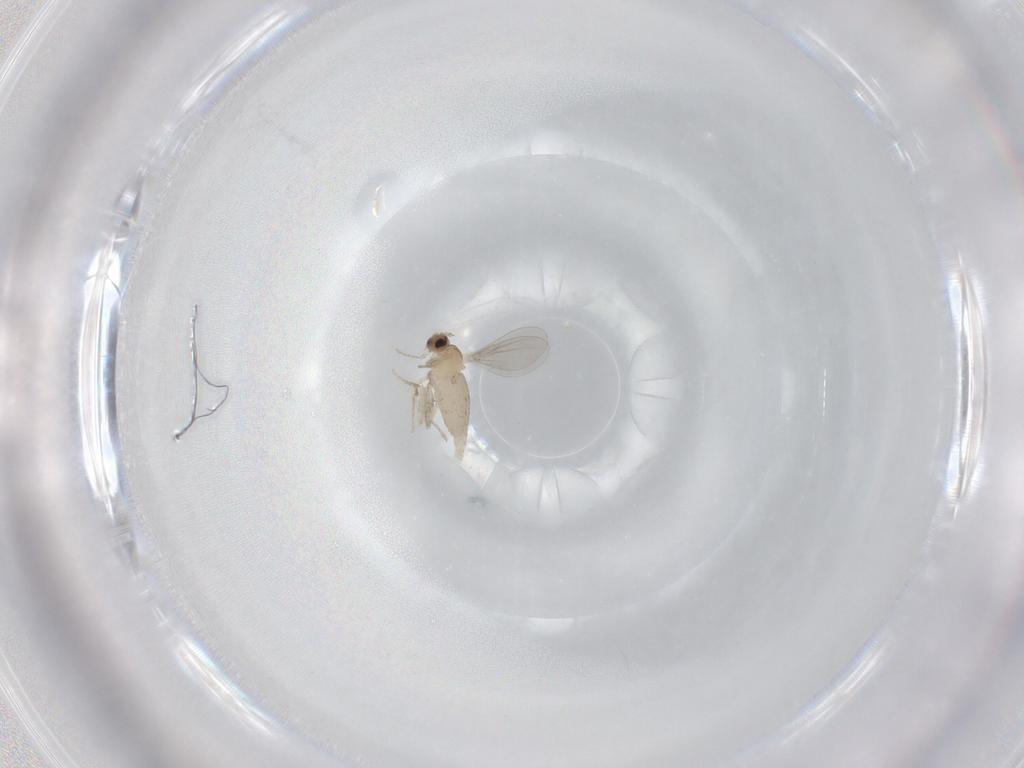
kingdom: Animalia
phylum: Arthropoda
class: Insecta
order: Diptera
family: Cecidomyiidae
